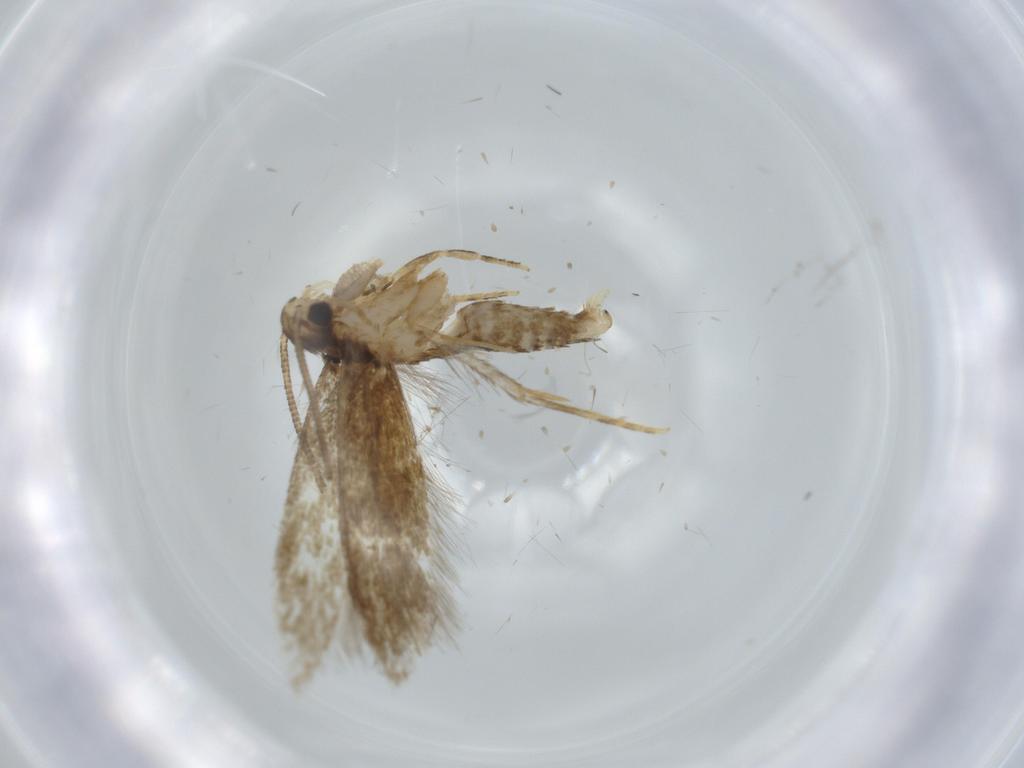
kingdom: Animalia
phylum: Arthropoda
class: Insecta
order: Lepidoptera
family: Tineidae
